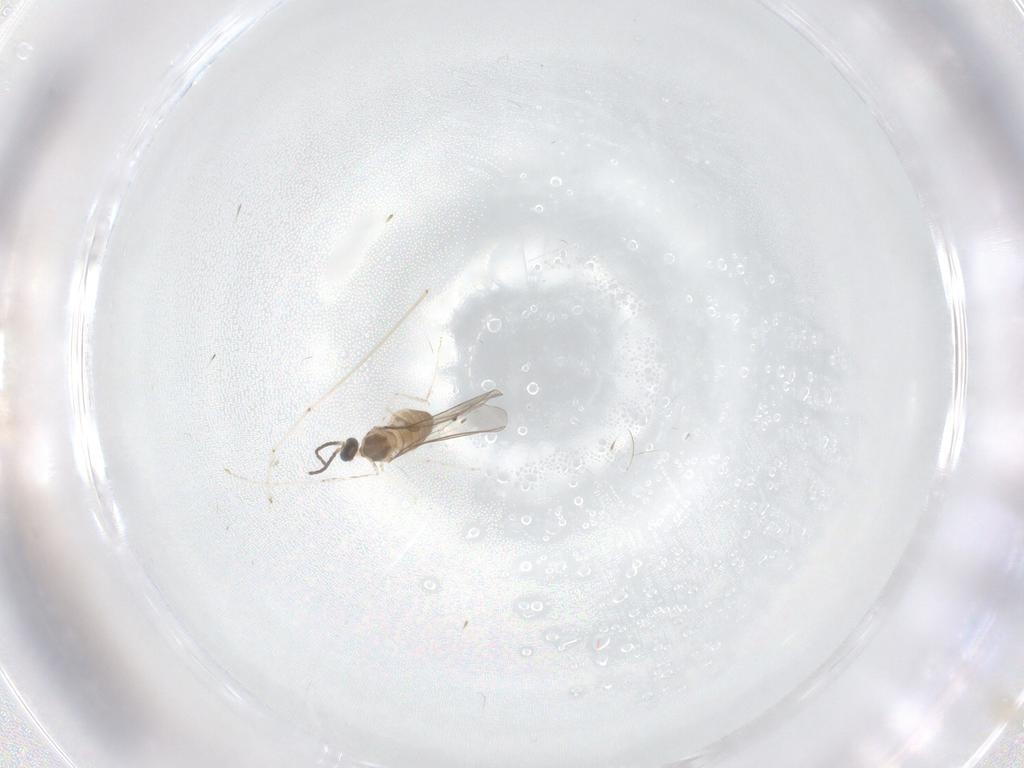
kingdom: Animalia
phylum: Arthropoda
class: Insecta
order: Diptera
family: Cecidomyiidae
